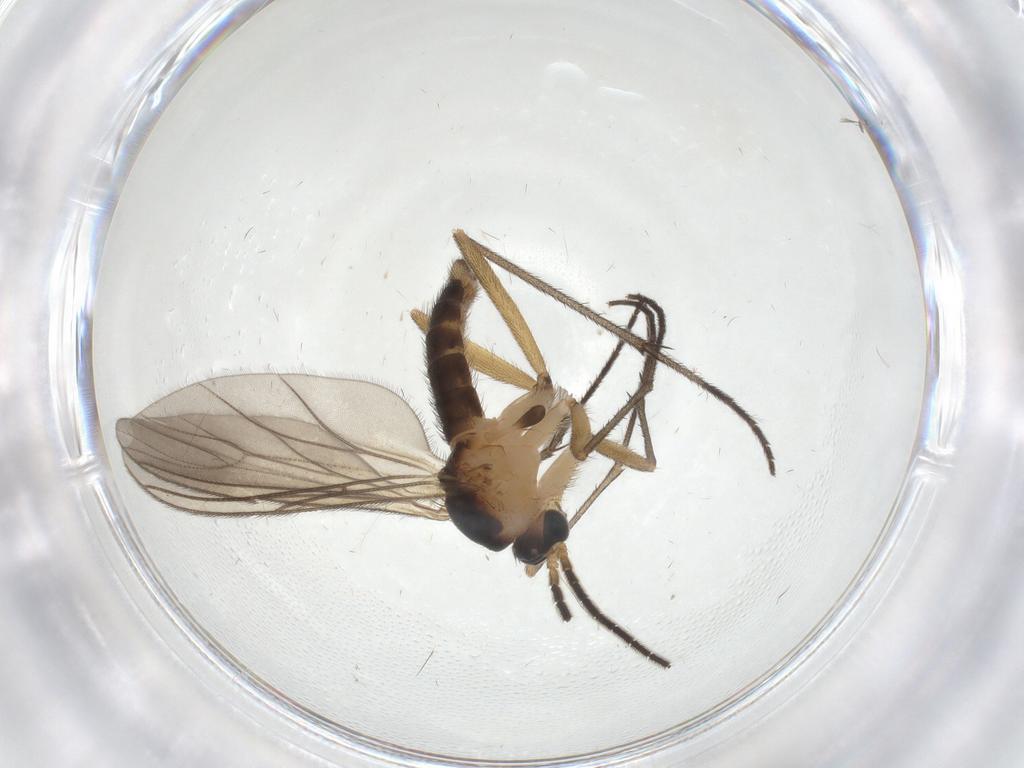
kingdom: Animalia
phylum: Arthropoda
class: Insecta
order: Diptera
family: Sciaridae
